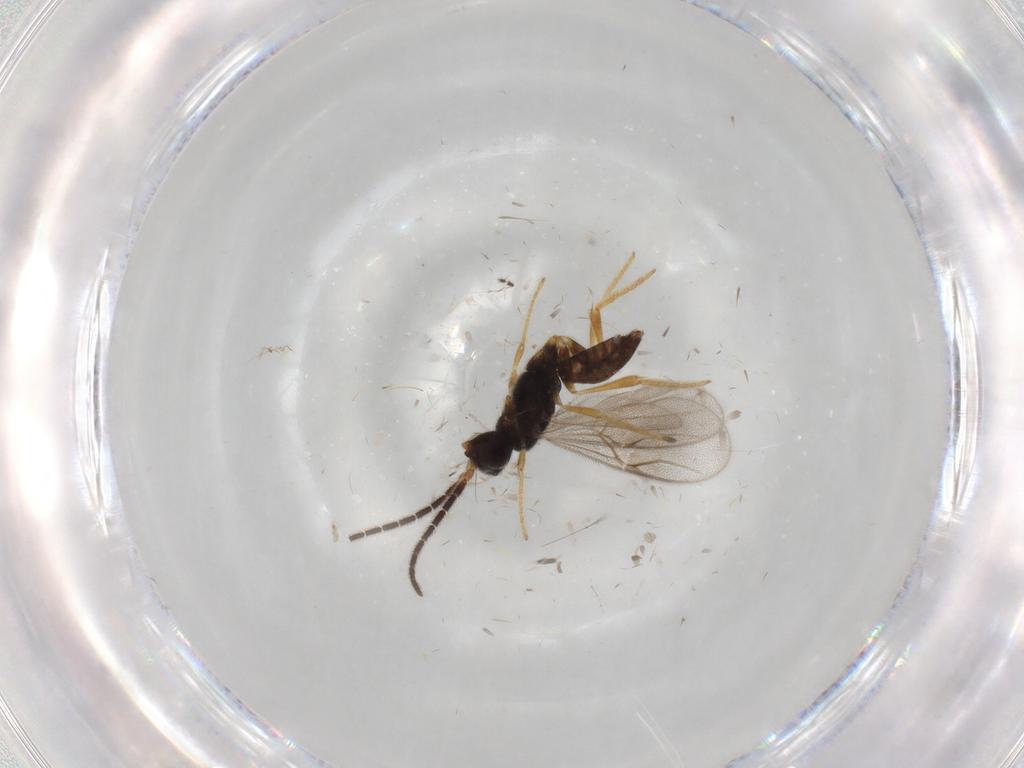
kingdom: Animalia
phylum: Arthropoda
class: Insecta
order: Hymenoptera
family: Dryinidae
